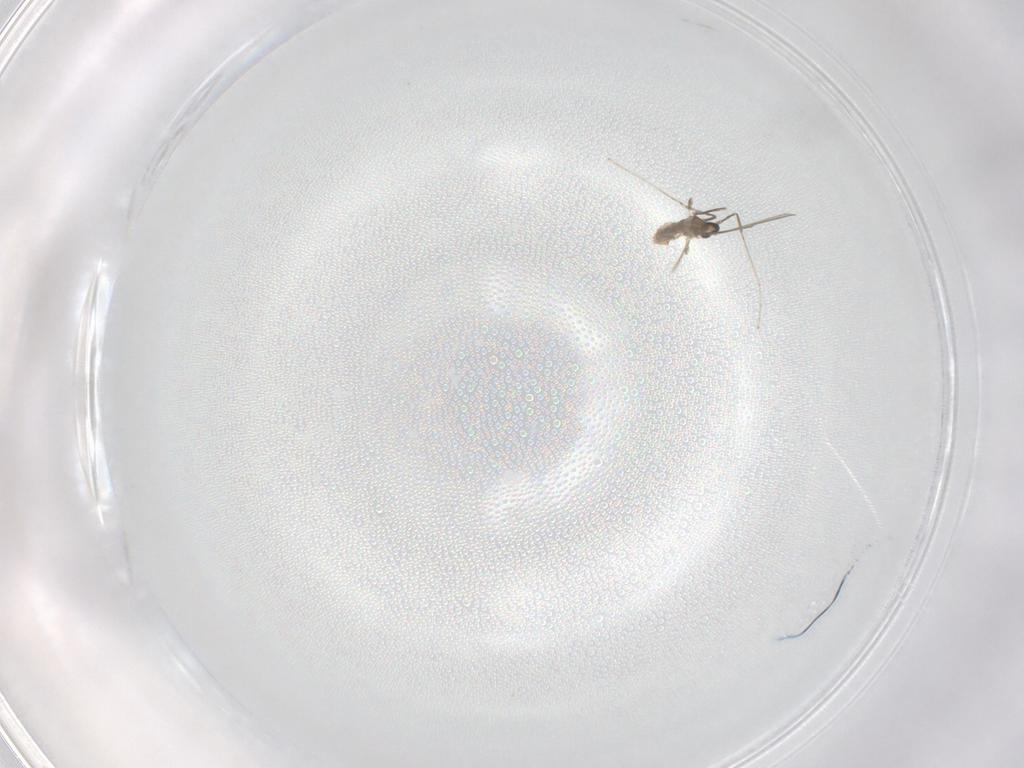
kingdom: Animalia
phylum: Arthropoda
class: Insecta
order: Diptera
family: Cecidomyiidae
